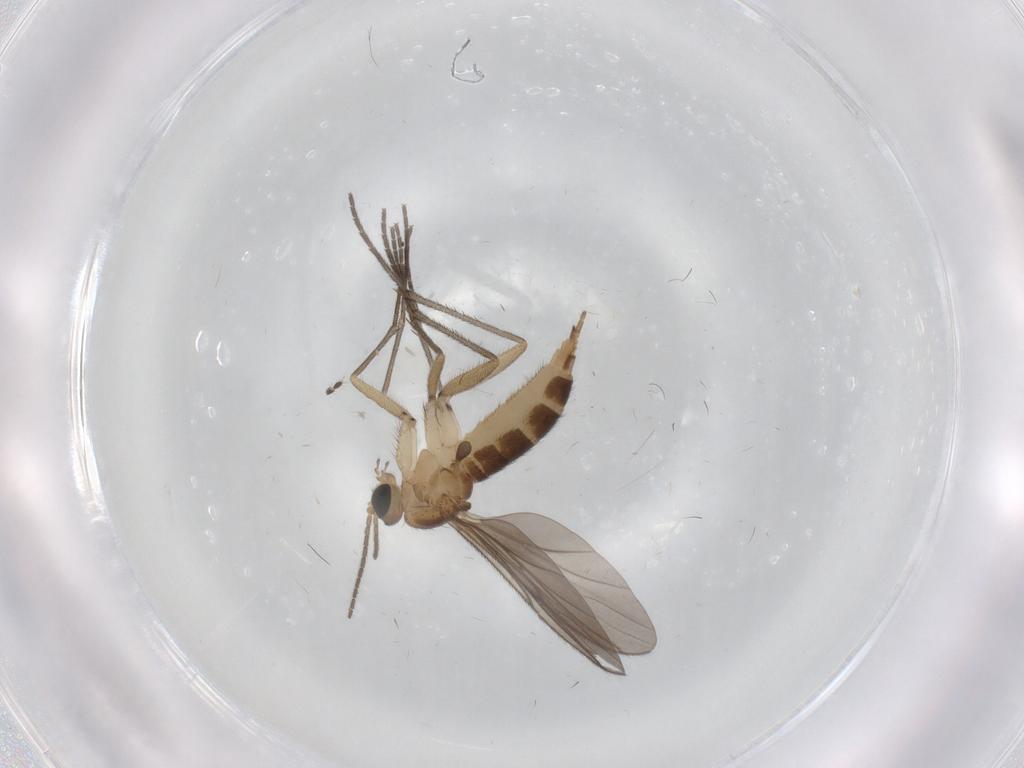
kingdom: Animalia
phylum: Arthropoda
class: Insecta
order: Diptera
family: Sciaridae
